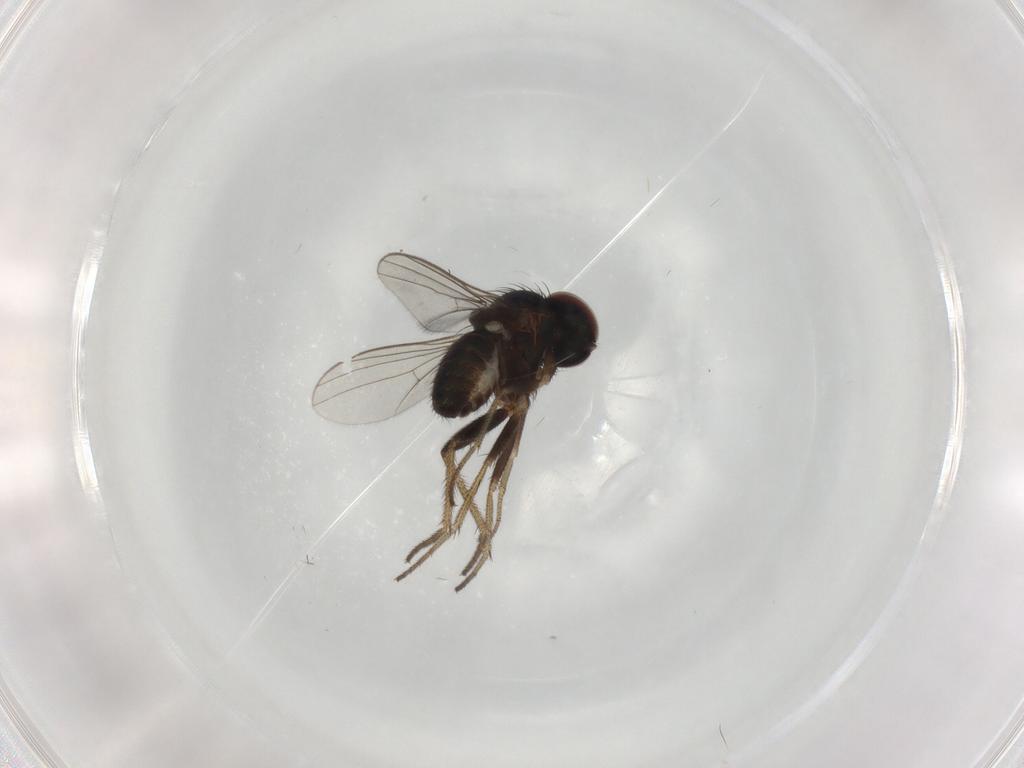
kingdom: Animalia
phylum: Arthropoda
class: Insecta
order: Diptera
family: Dolichopodidae
